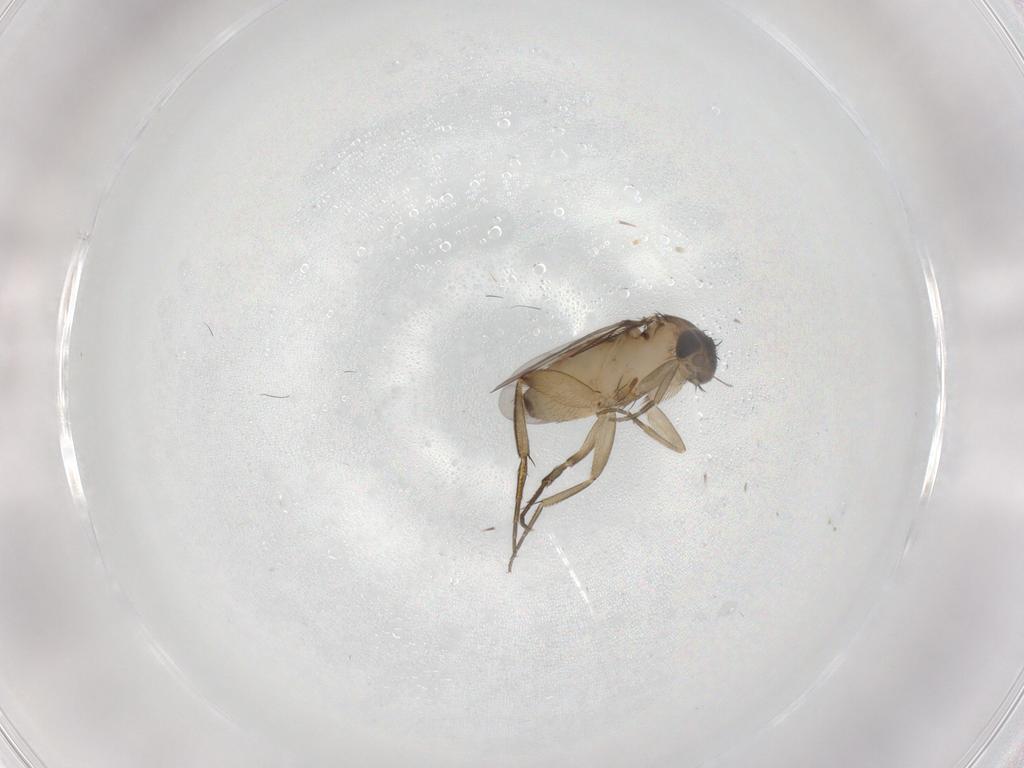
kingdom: Animalia
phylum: Arthropoda
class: Insecta
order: Diptera
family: Phoridae
